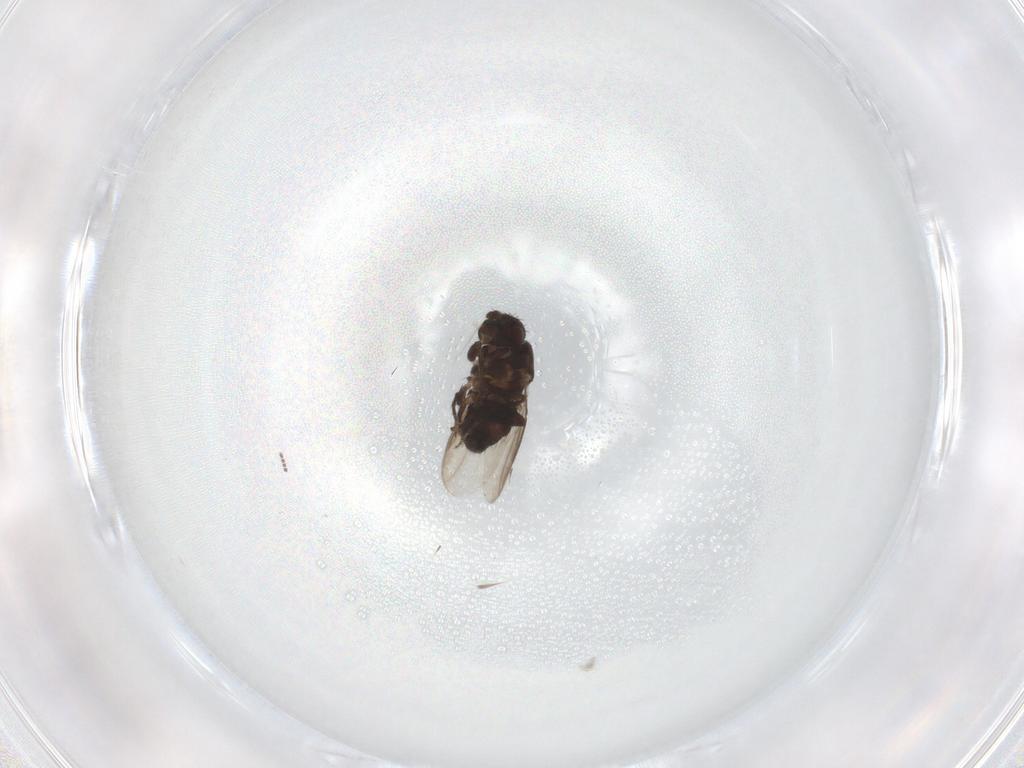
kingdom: Animalia
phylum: Arthropoda
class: Insecta
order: Diptera
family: Sphaeroceridae
